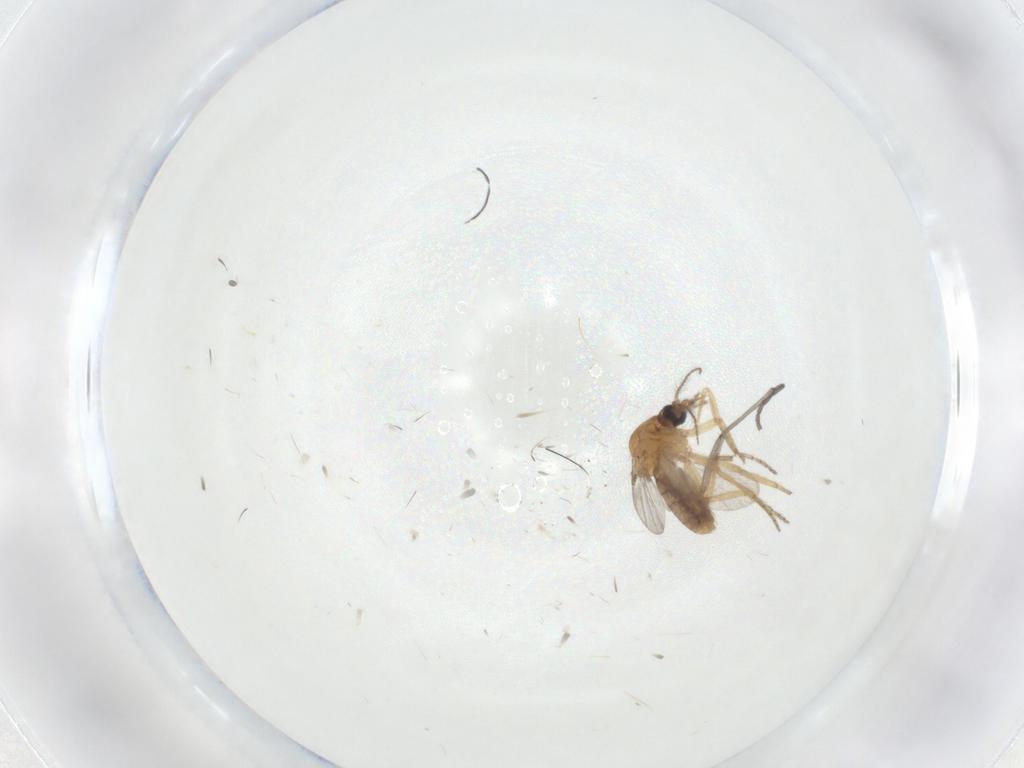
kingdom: Animalia
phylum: Arthropoda
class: Insecta
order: Diptera
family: Ceratopogonidae
